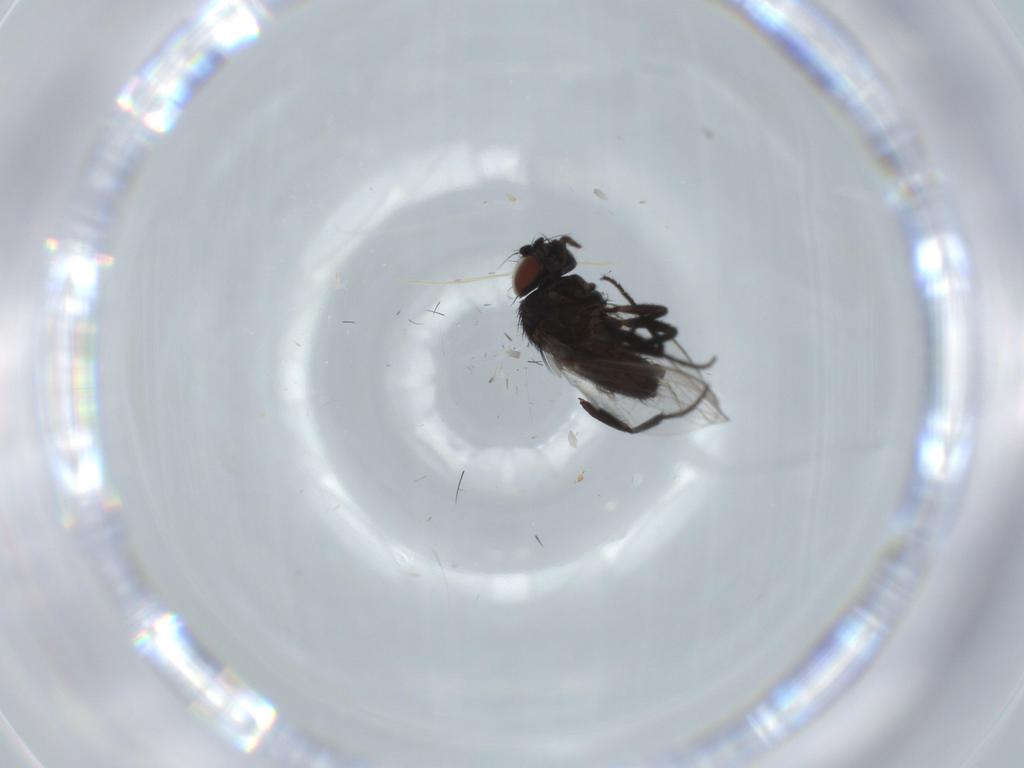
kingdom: Animalia
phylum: Arthropoda
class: Insecta
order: Diptera
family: Milichiidae
